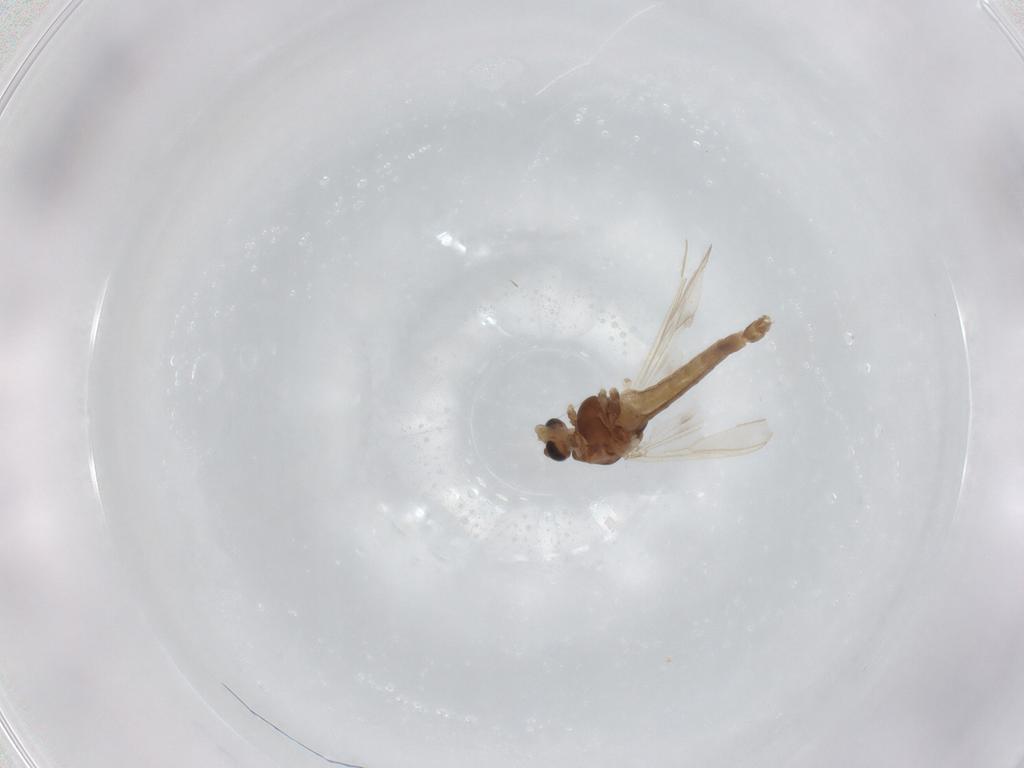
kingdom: Animalia
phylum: Arthropoda
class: Insecta
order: Diptera
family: Chironomidae
